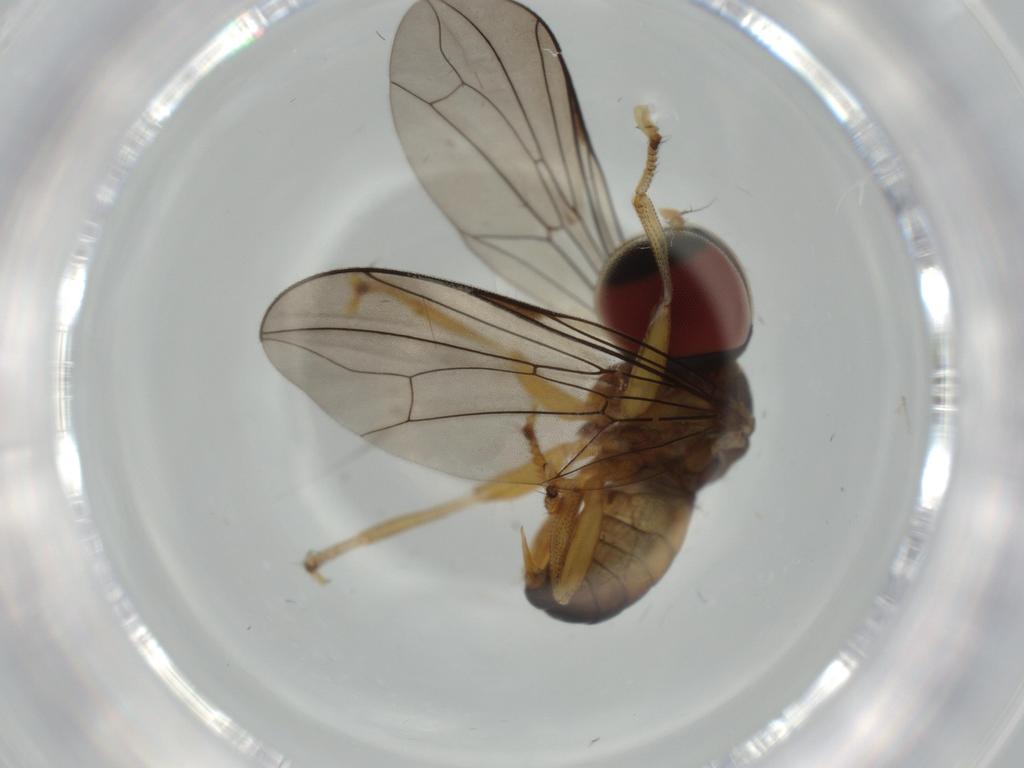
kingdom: Animalia
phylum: Arthropoda
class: Insecta
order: Diptera
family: Pipunculidae
